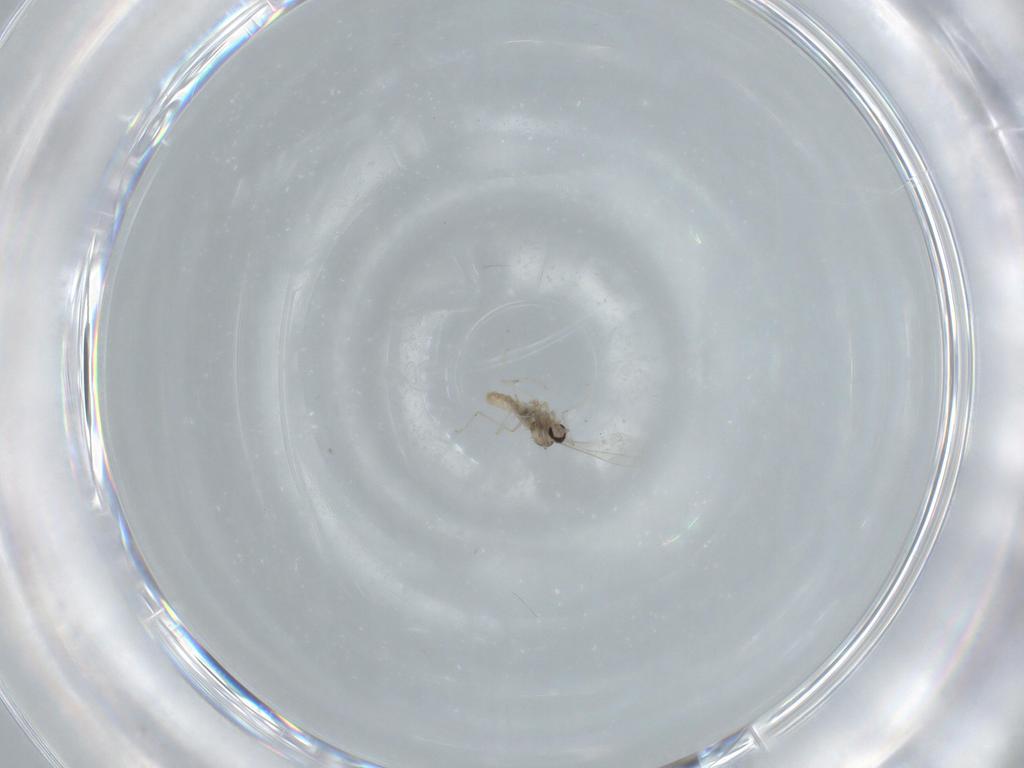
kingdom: Animalia
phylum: Arthropoda
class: Insecta
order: Diptera
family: Cecidomyiidae
